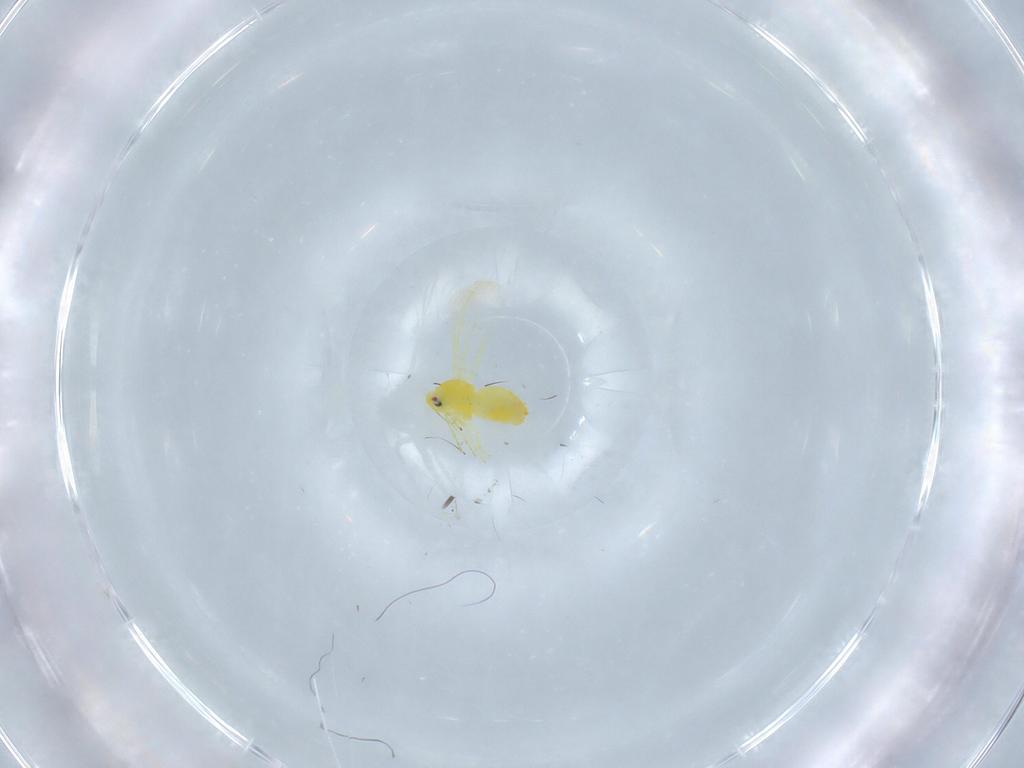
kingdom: Animalia
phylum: Arthropoda
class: Insecta
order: Hemiptera
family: Aleyrodidae
